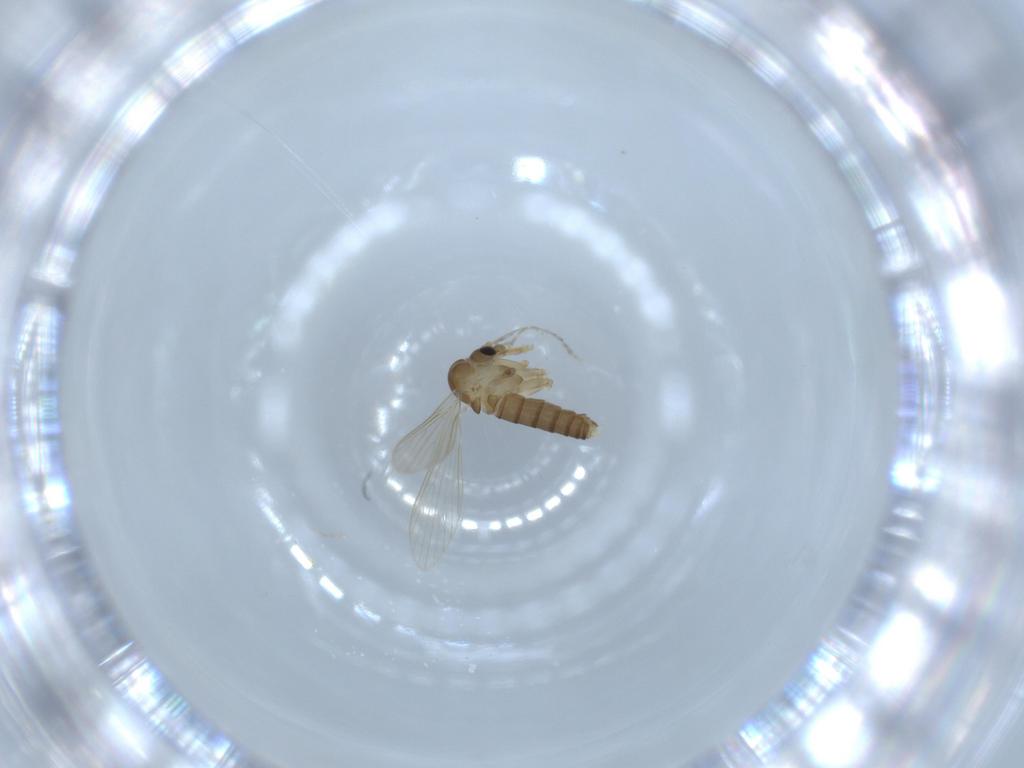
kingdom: Animalia
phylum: Arthropoda
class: Insecta
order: Diptera
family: Psychodidae
